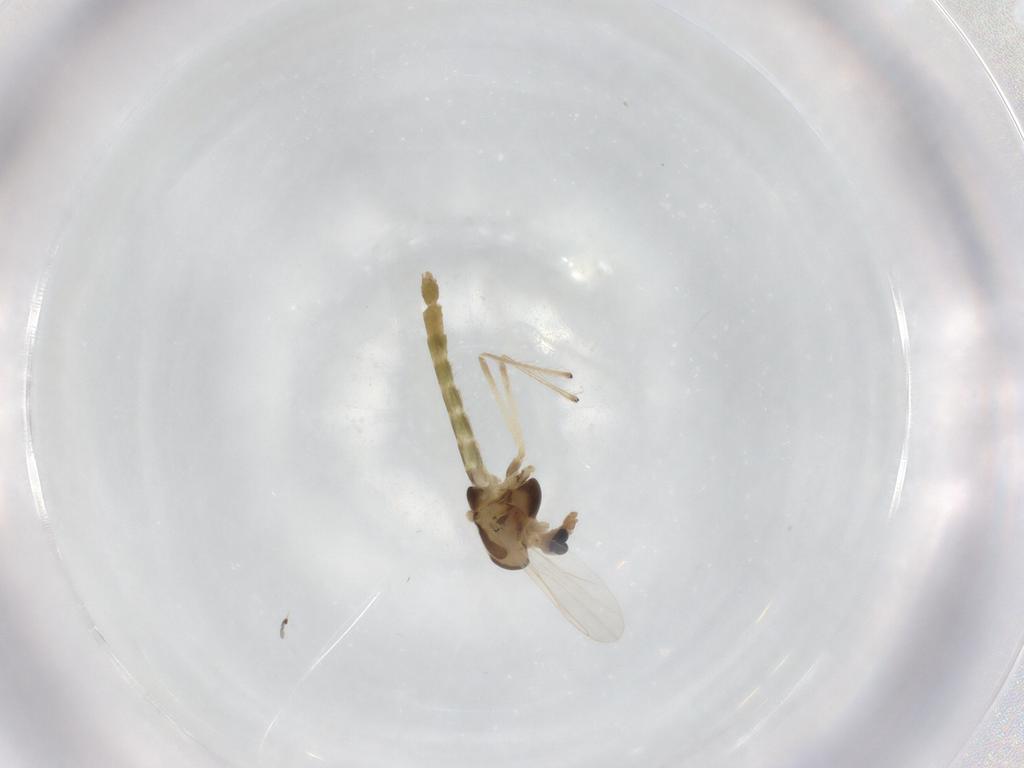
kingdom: Animalia
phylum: Arthropoda
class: Insecta
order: Diptera
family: Chironomidae
